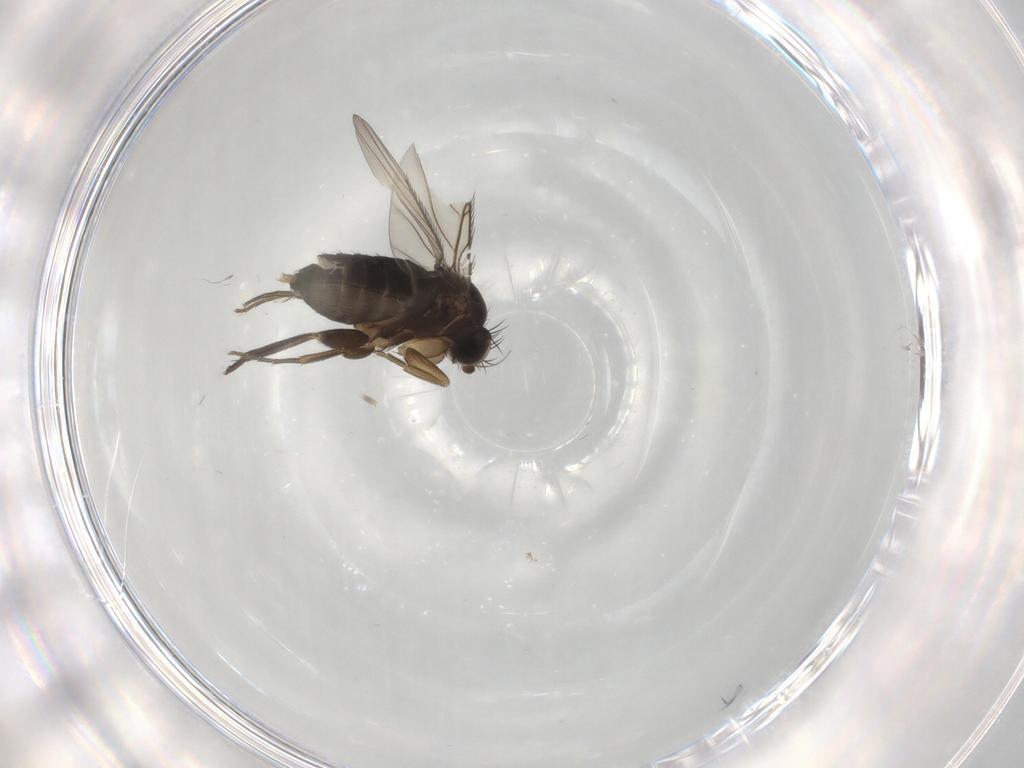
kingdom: Animalia
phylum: Arthropoda
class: Insecta
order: Diptera
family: Phoridae
